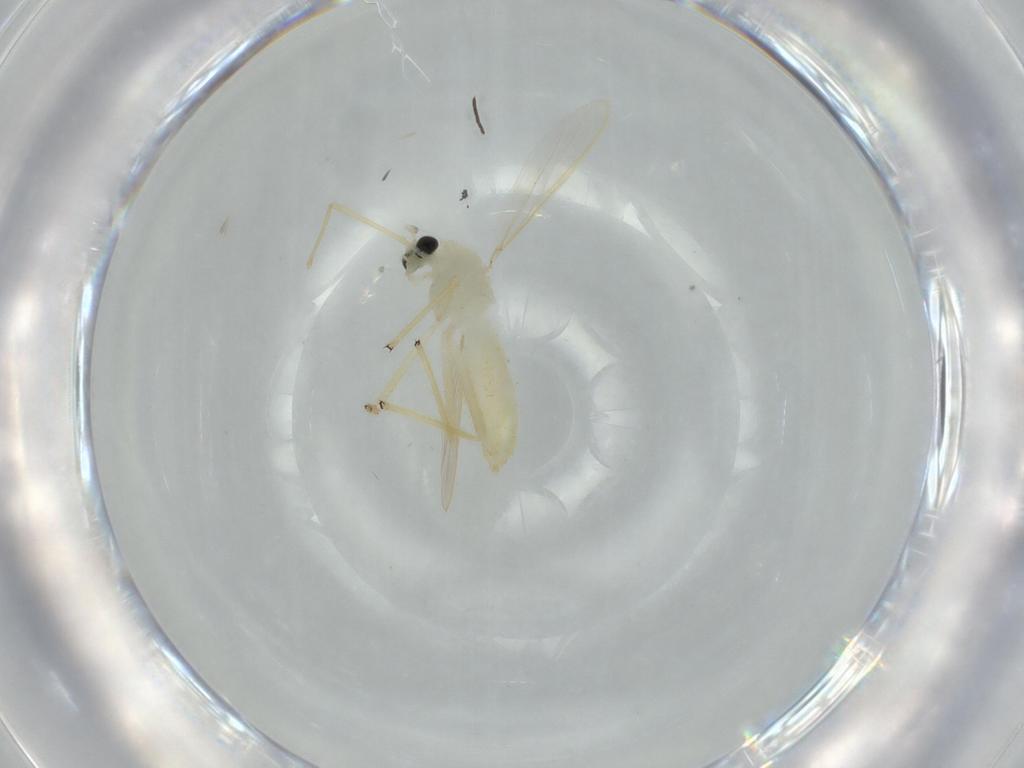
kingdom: Animalia
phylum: Arthropoda
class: Insecta
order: Diptera
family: Chironomidae
